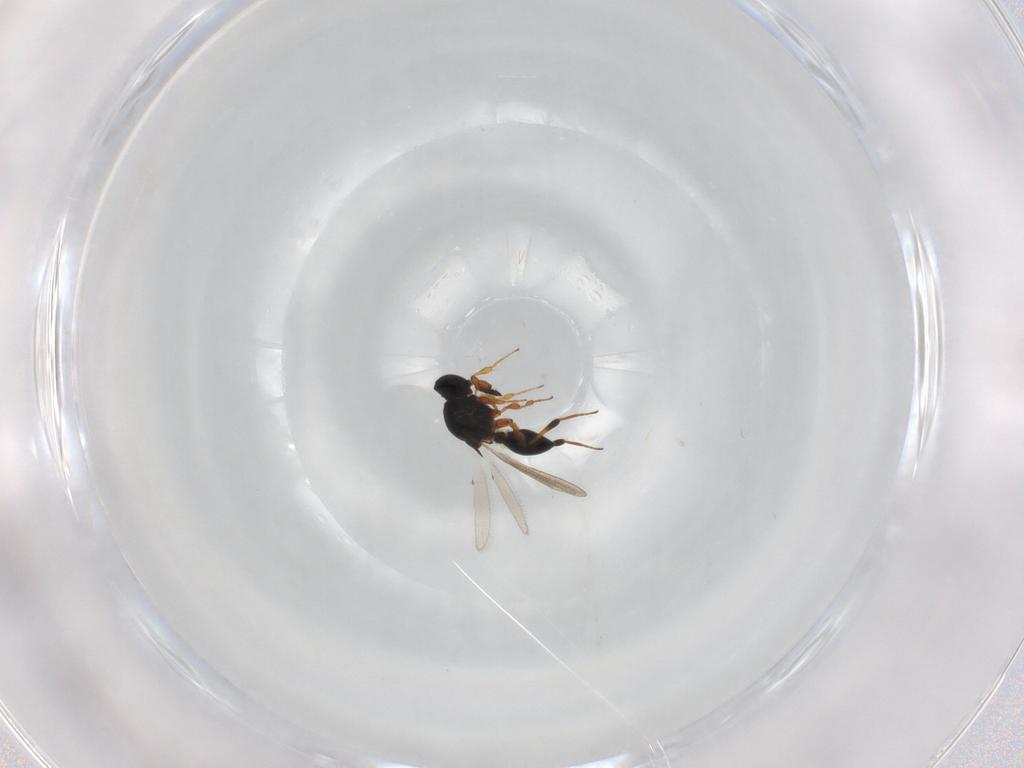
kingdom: Animalia
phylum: Arthropoda
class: Insecta
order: Hymenoptera
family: Platygastridae
